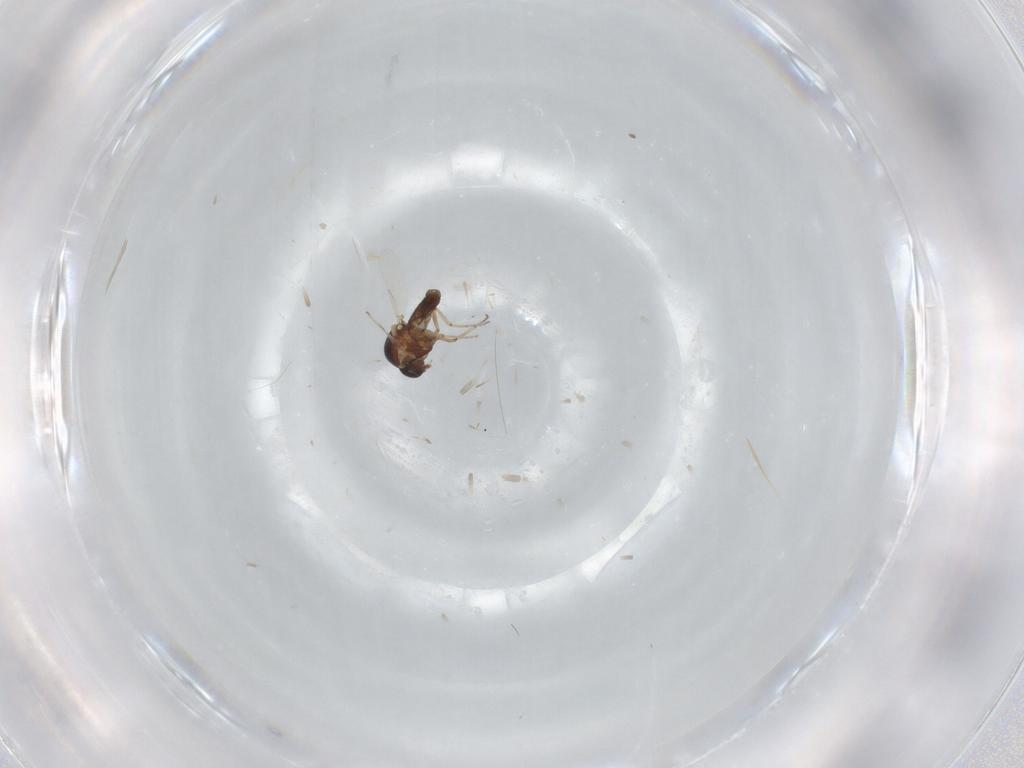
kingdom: Animalia
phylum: Arthropoda
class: Insecta
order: Diptera
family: Ceratopogonidae
